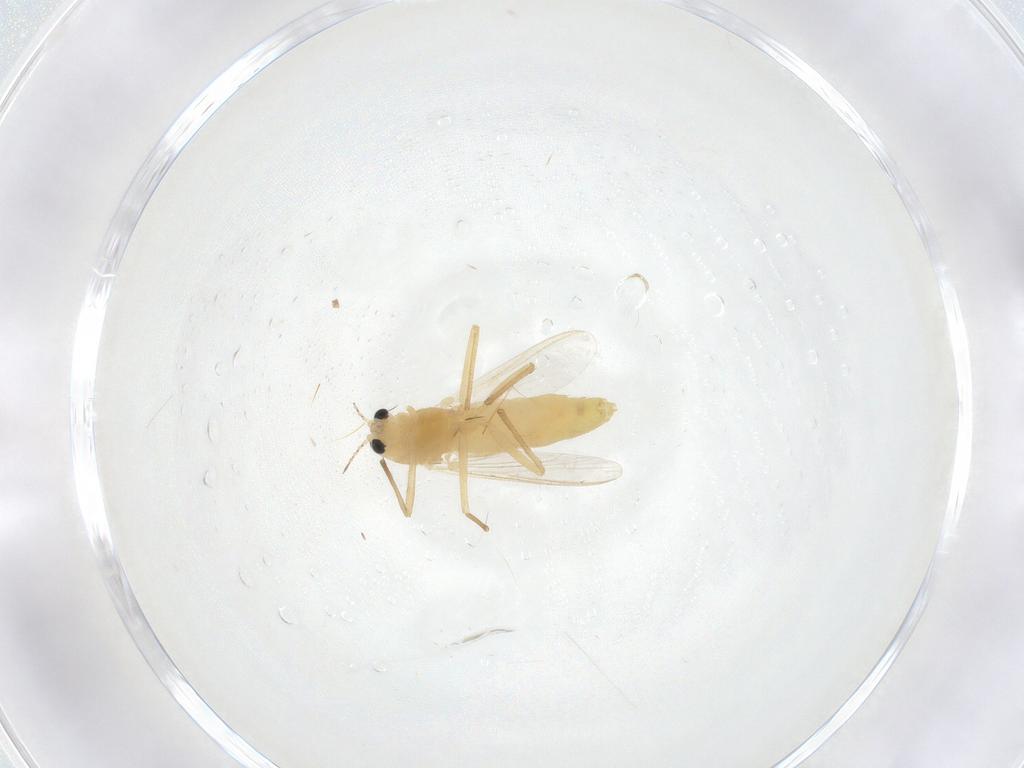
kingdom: Animalia
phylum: Arthropoda
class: Insecta
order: Diptera
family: Chironomidae
